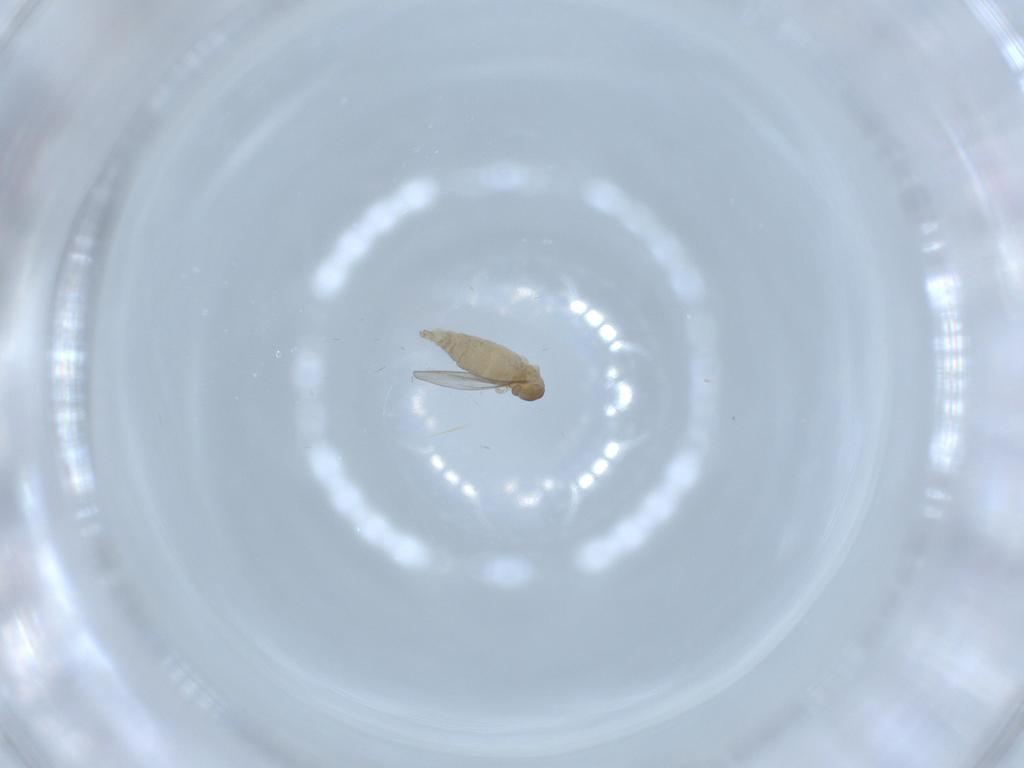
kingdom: Animalia
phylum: Arthropoda
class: Insecta
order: Diptera
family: Cecidomyiidae
